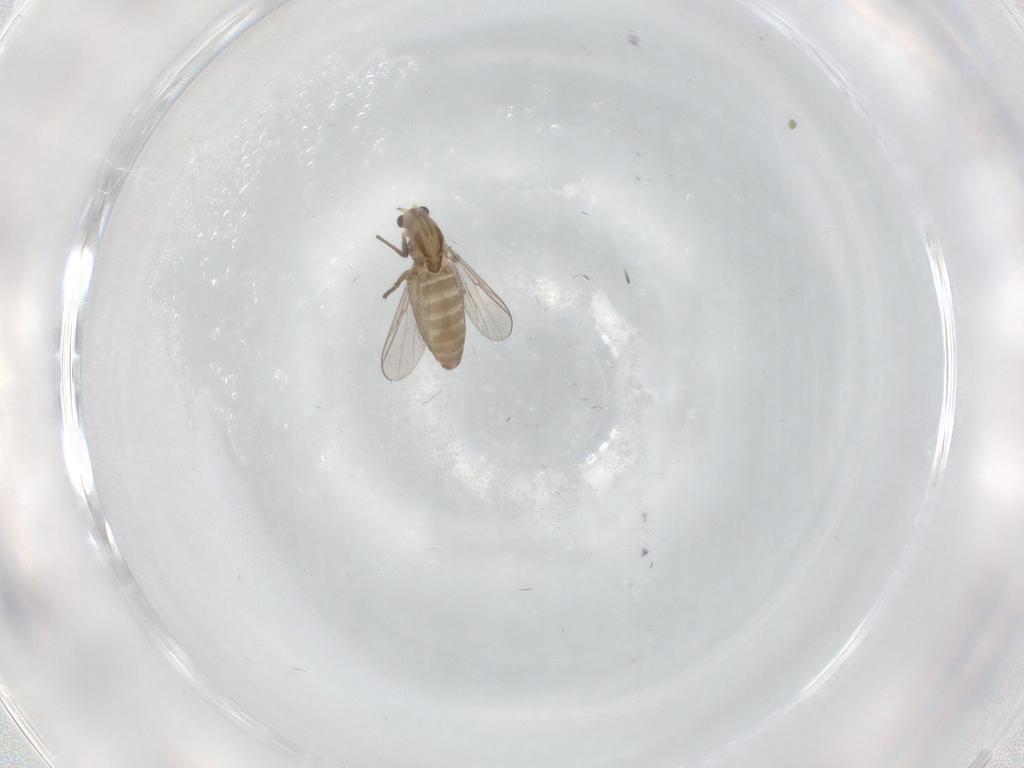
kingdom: Animalia
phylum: Arthropoda
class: Insecta
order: Diptera
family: Chironomidae
